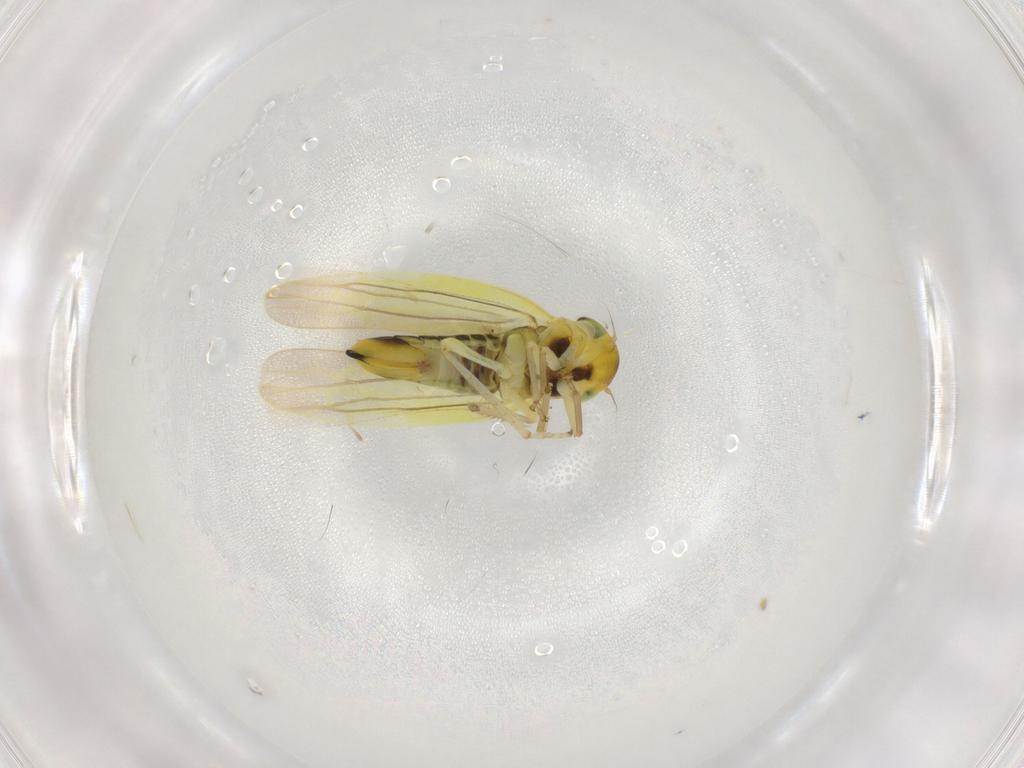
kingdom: Animalia
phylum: Arthropoda
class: Insecta
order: Hemiptera
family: Cicadellidae
